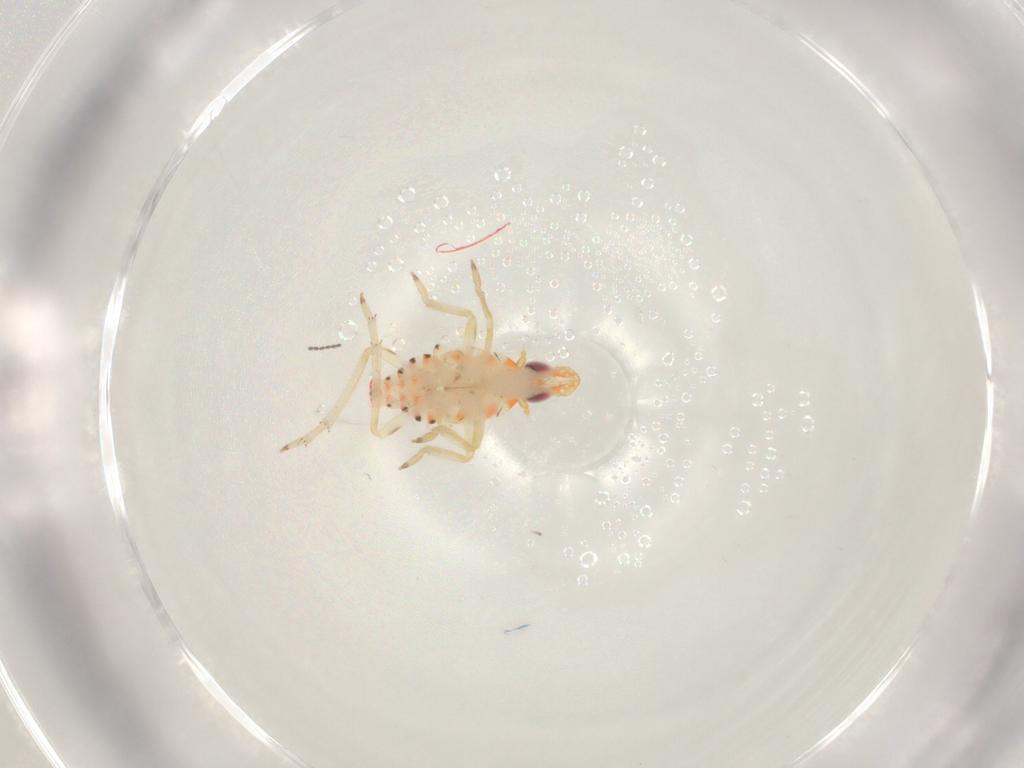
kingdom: Animalia
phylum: Arthropoda
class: Insecta
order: Hemiptera
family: Tropiduchidae
